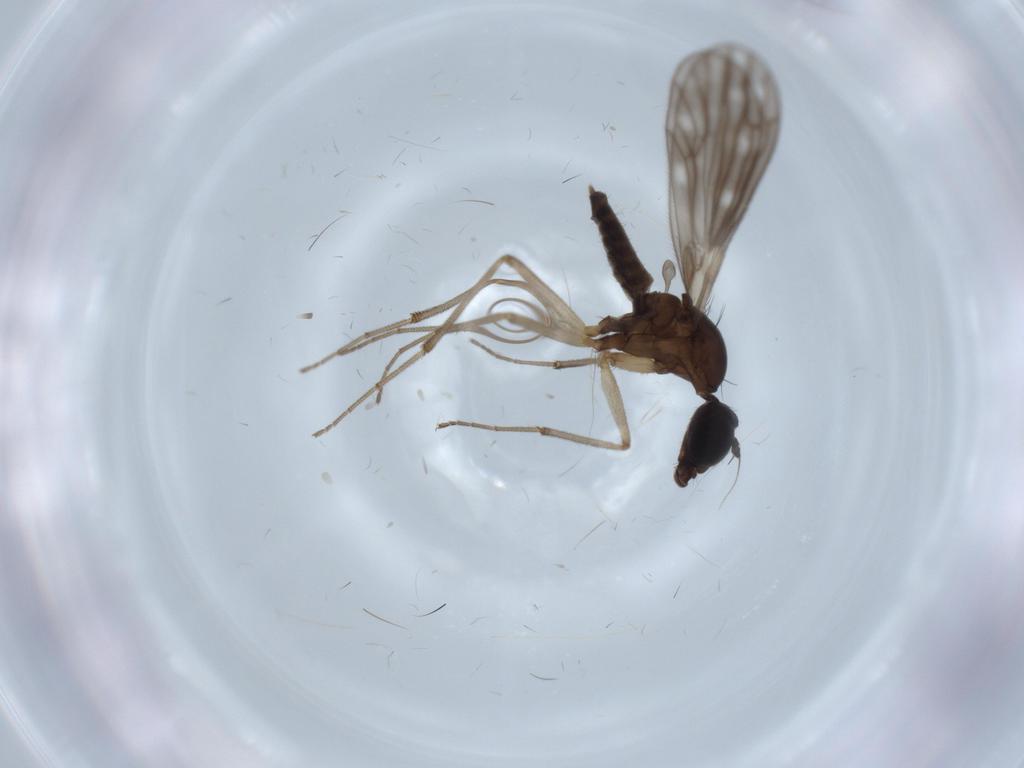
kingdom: Animalia
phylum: Arthropoda
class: Insecta
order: Diptera
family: Empididae
